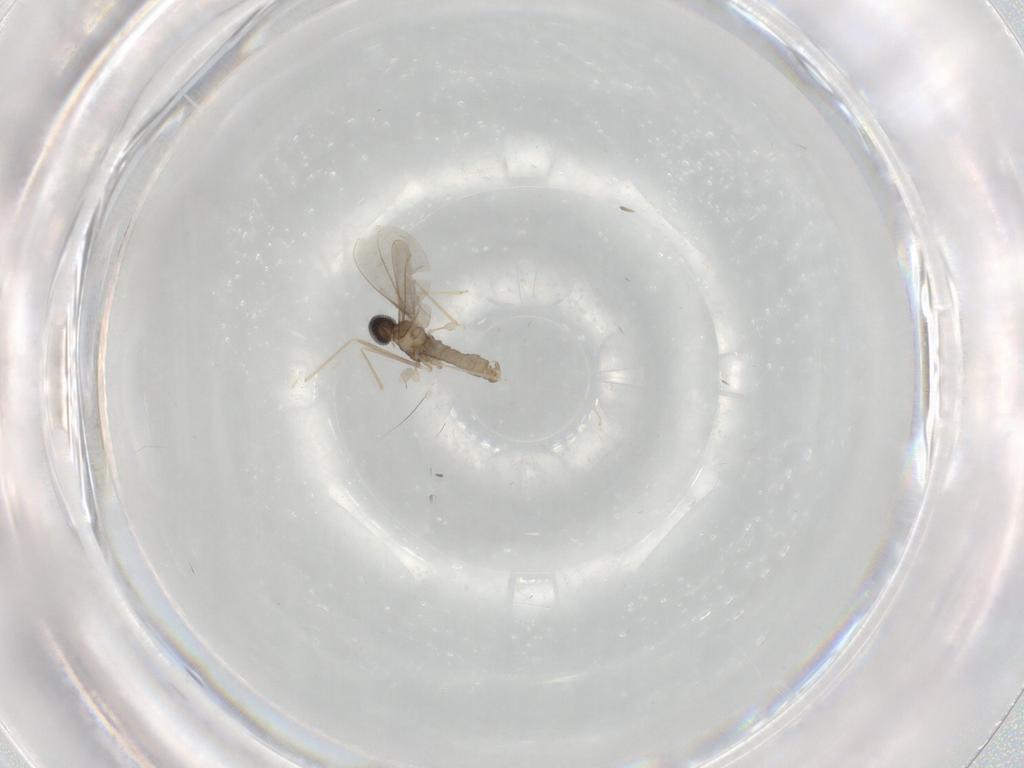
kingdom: Animalia
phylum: Arthropoda
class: Insecta
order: Diptera
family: Cecidomyiidae
